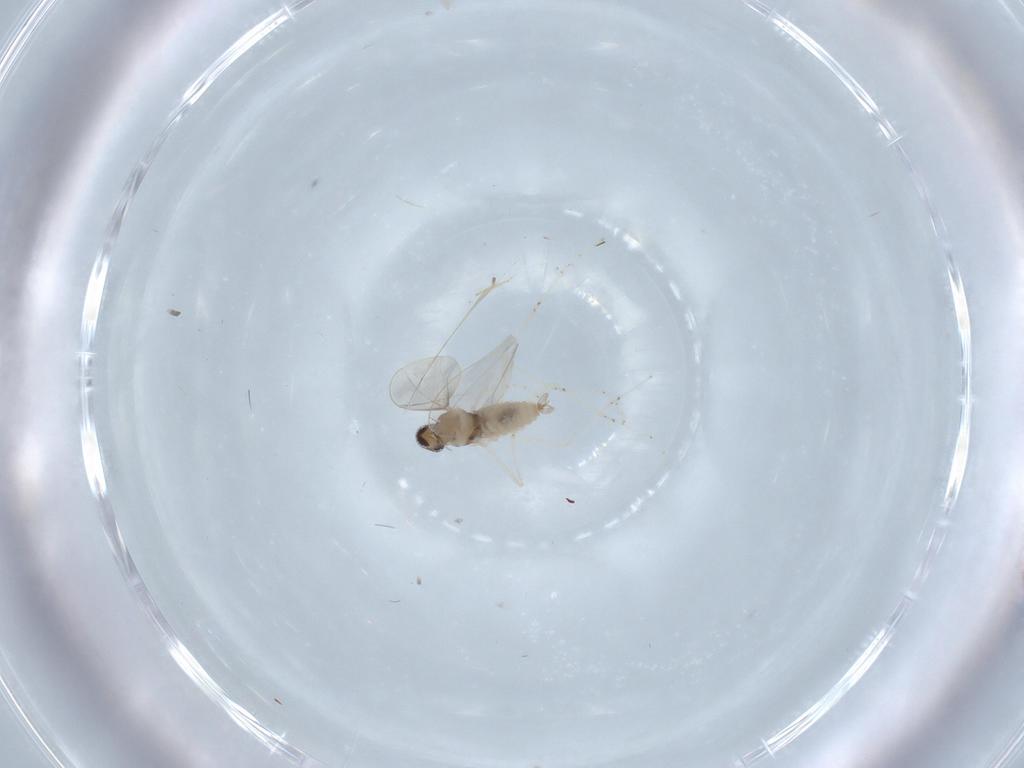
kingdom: Animalia
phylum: Arthropoda
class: Insecta
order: Diptera
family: Cecidomyiidae
